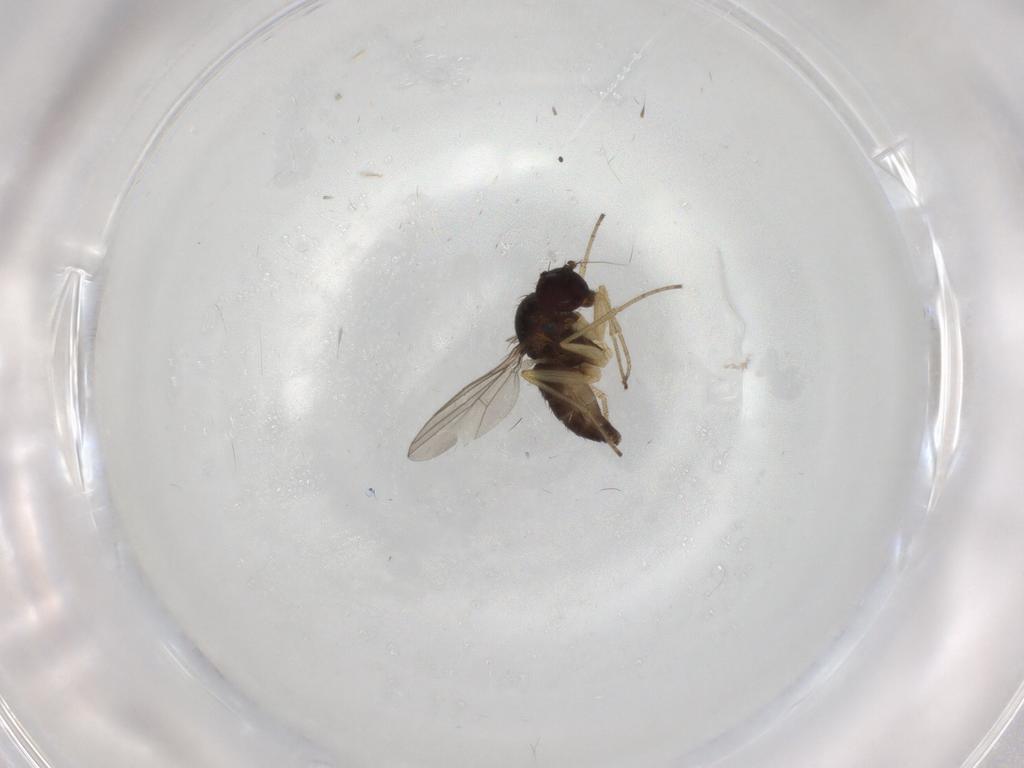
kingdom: Animalia
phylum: Arthropoda
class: Insecta
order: Diptera
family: Dolichopodidae
